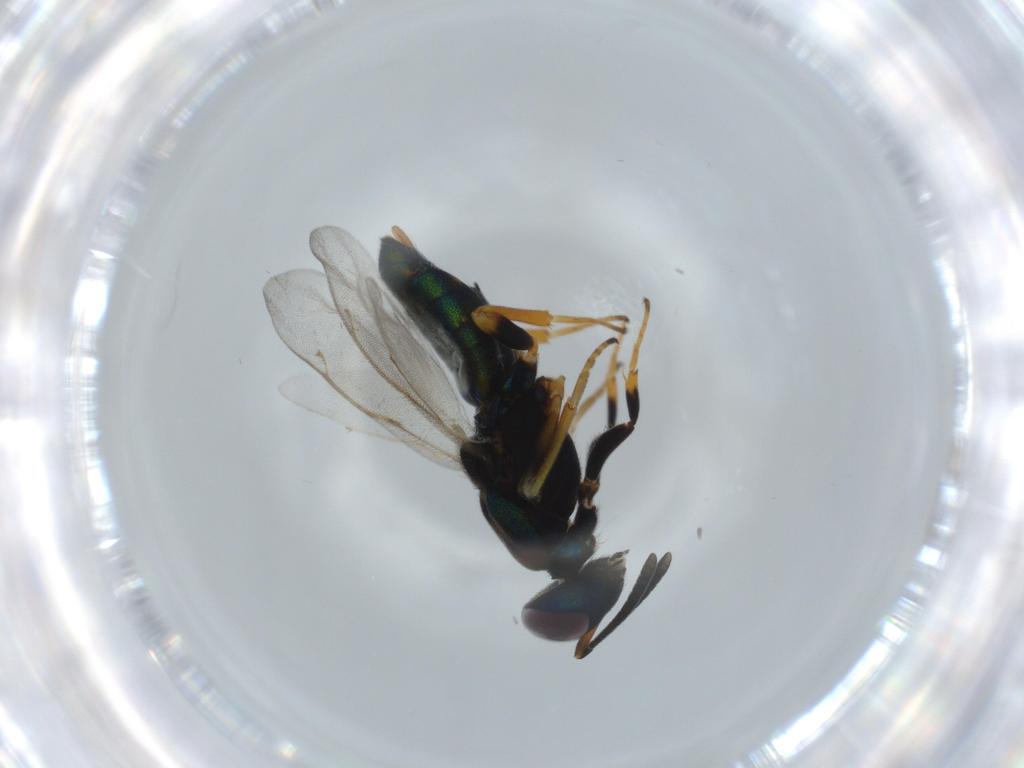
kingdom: Animalia
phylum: Arthropoda
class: Insecta
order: Hymenoptera
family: Eupelmidae
